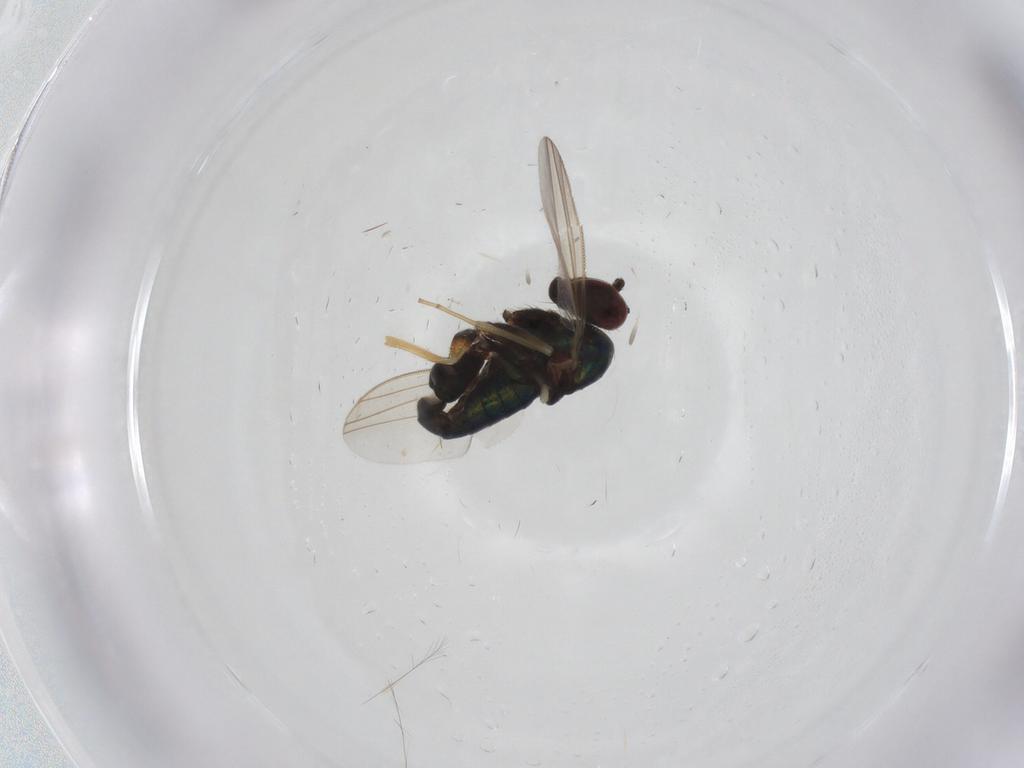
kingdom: Animalia
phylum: Arthropoda
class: Insecta
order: Diptera
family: Dolichopodidae
